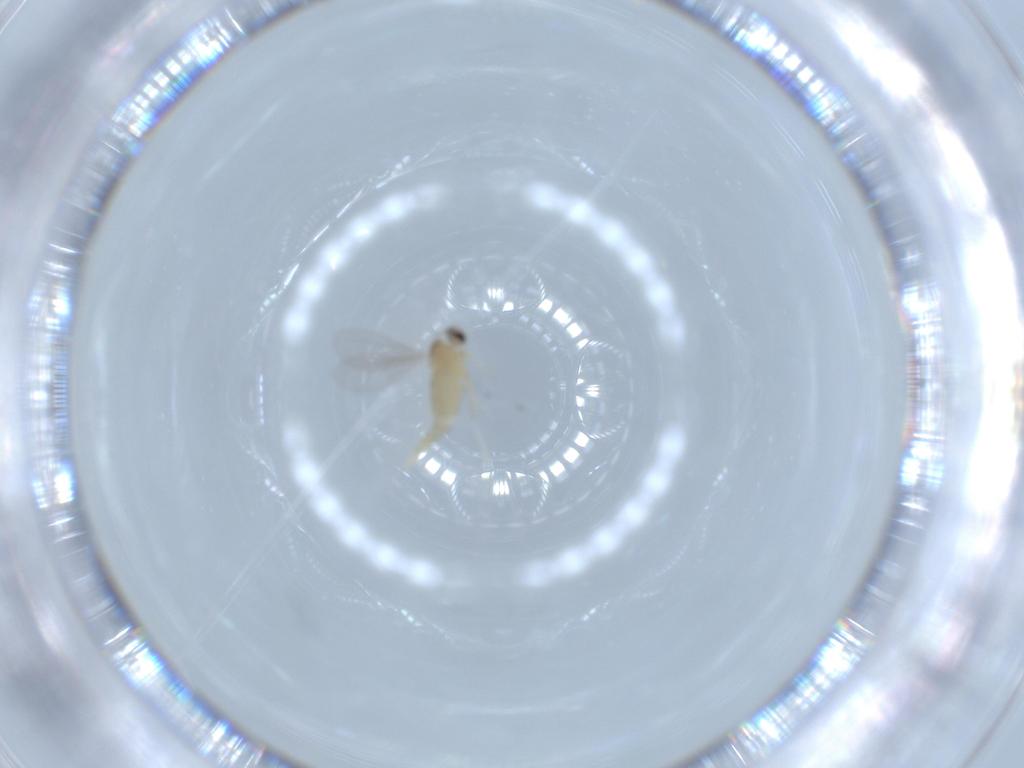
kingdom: Animalia
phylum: Arthropoda
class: Insecta
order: Diptera
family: Cecidomyiidae
